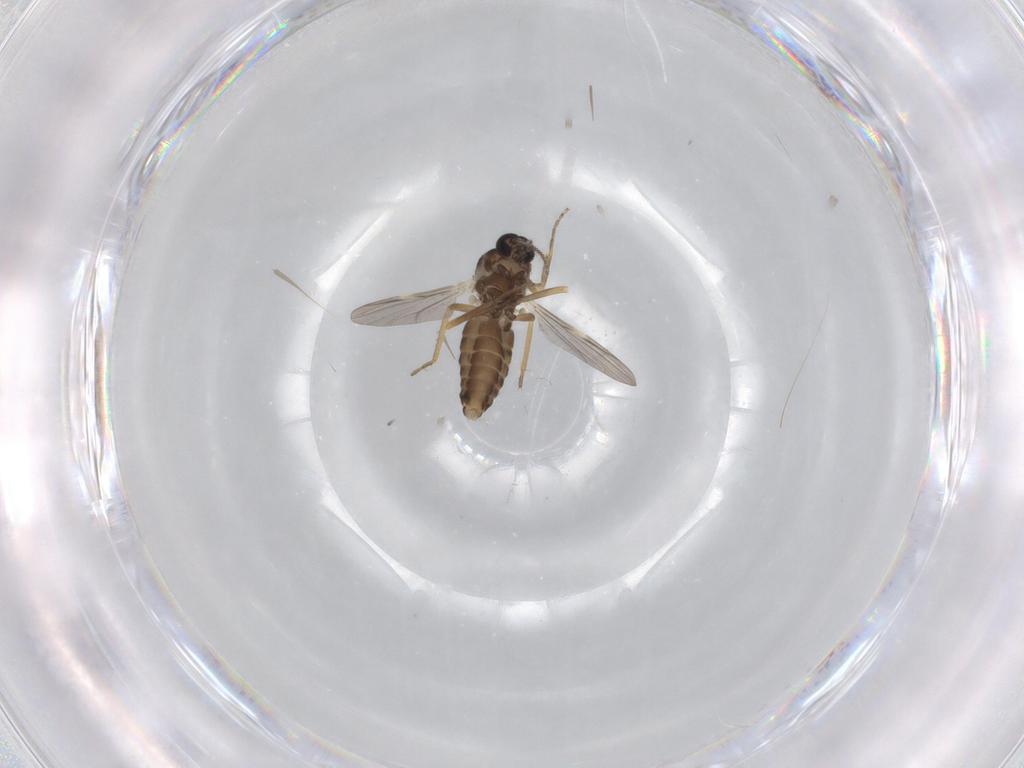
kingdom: Animalia
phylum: Arthropoda
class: Insecta
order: Diptera
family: Ceratopogonidae
